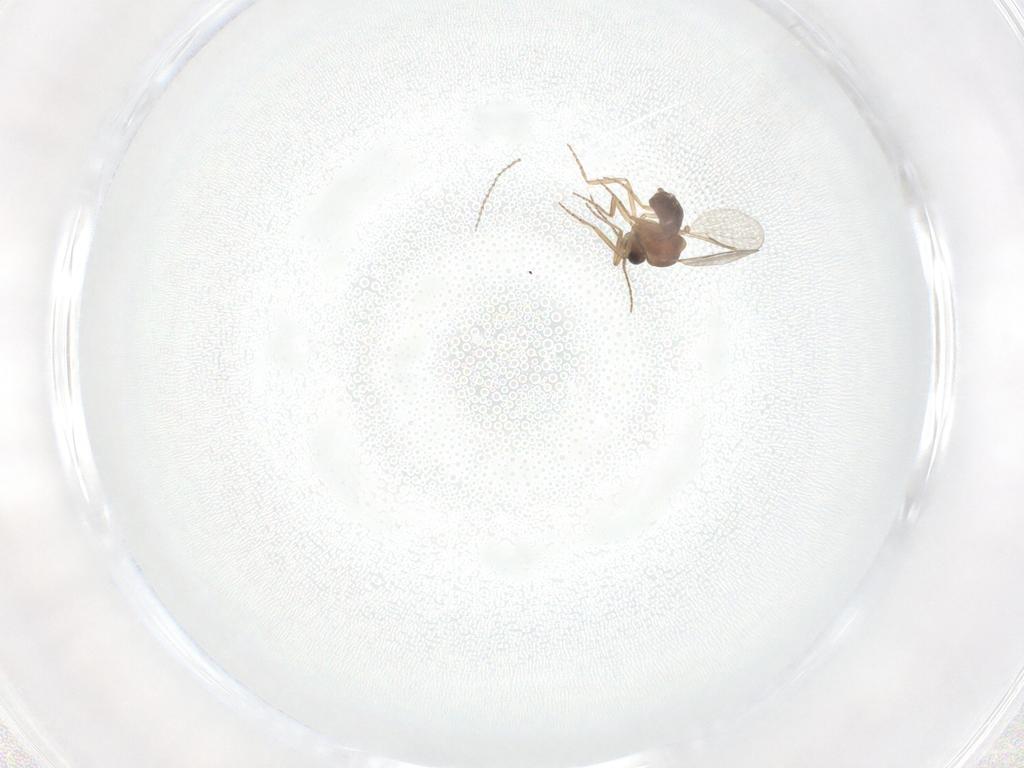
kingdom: Animalia
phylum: Arthropoda
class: Insecta
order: Diptera
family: Cecidomyiidae
